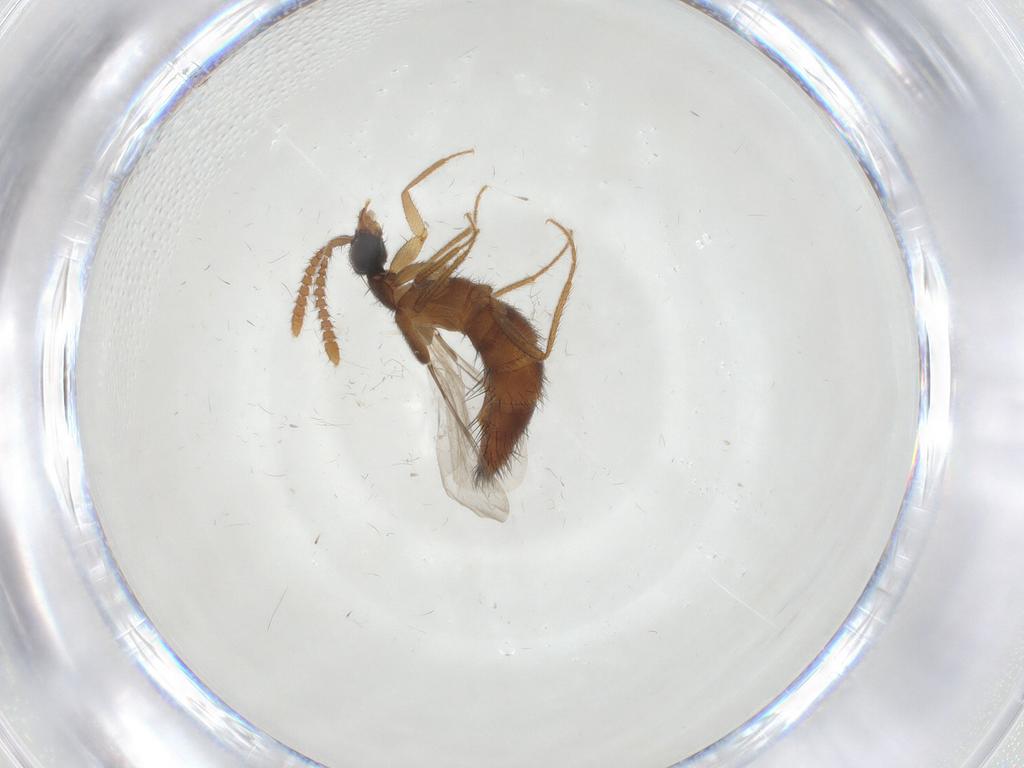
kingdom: Animalia
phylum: Arthropoda
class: Insecta
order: Coleoptera
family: Staphylinidae
